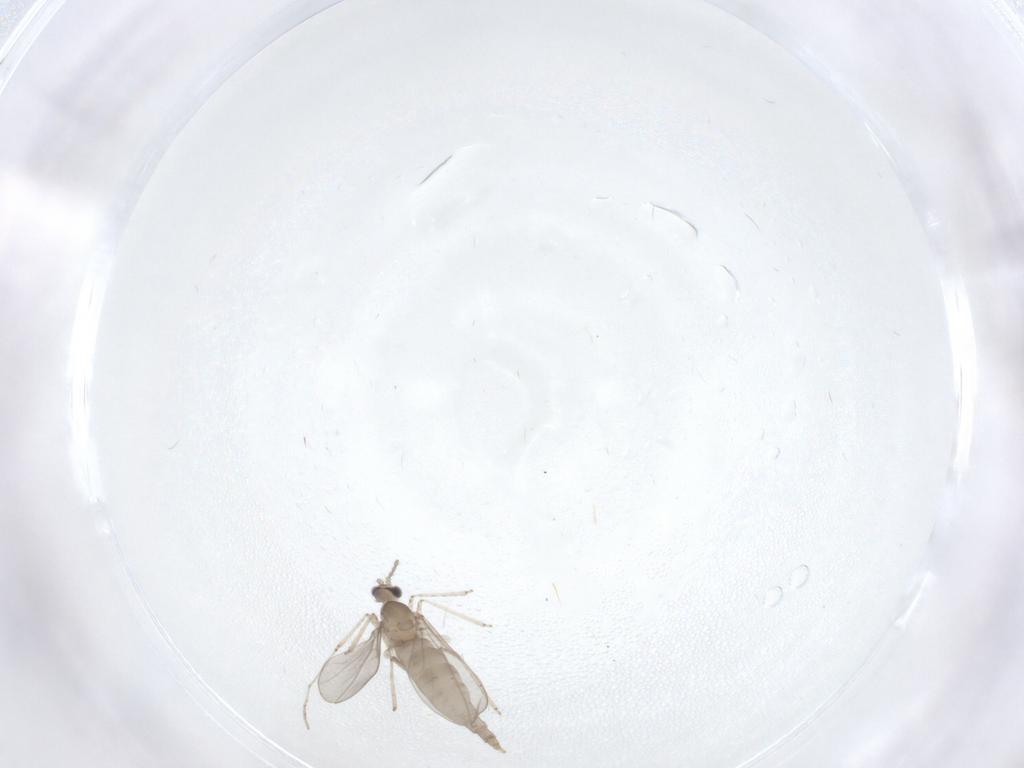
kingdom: Animalia
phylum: Arthropoda
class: Insecta
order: Diptera
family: Cecidomyiidae
